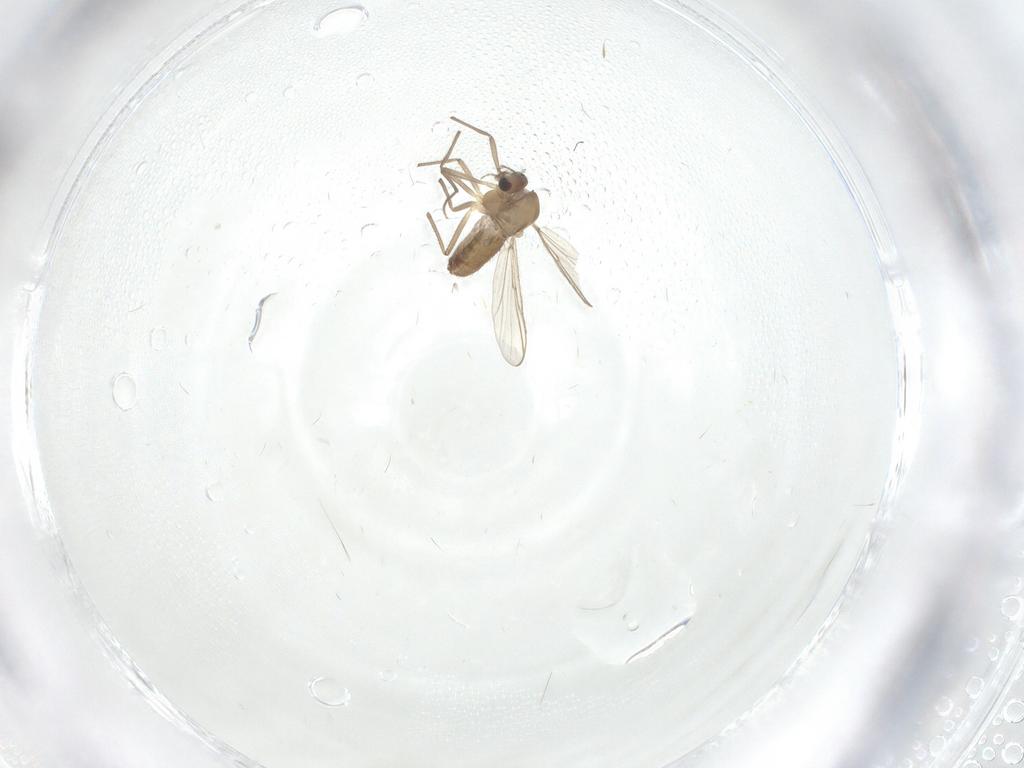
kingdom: Animalia
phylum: Arthropoda
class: Insecta
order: Diptera
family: Chironomidae
